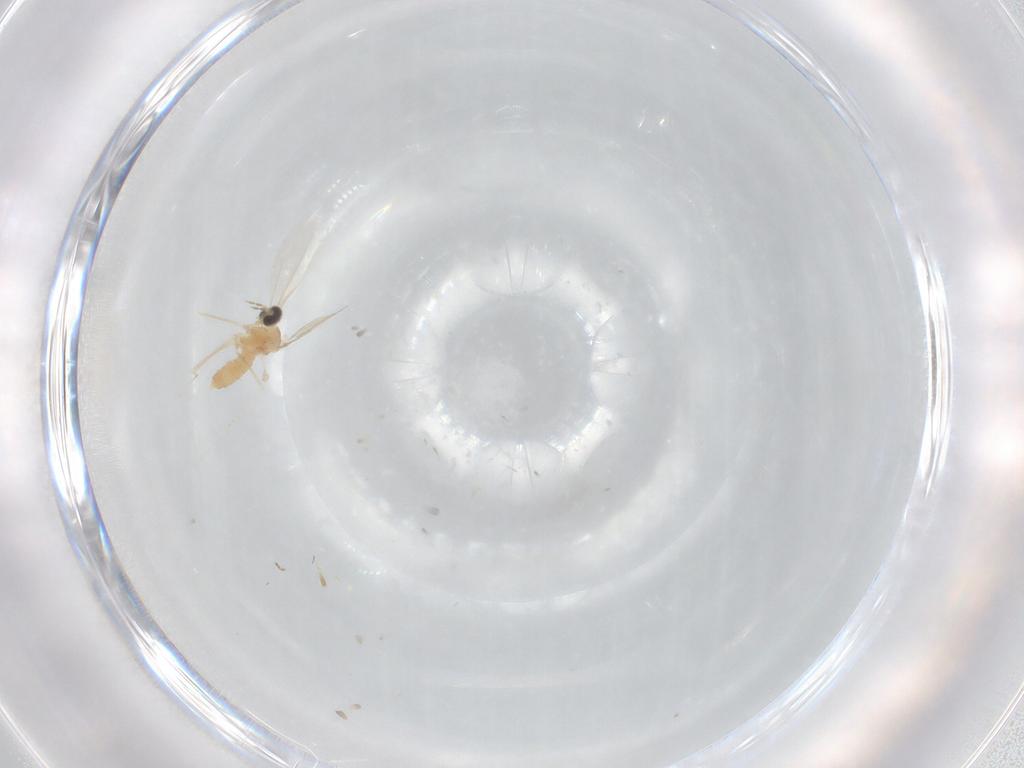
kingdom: Animalia
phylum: Arthropoda
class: Insecta
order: Diptera
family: Cecidomyiidae
